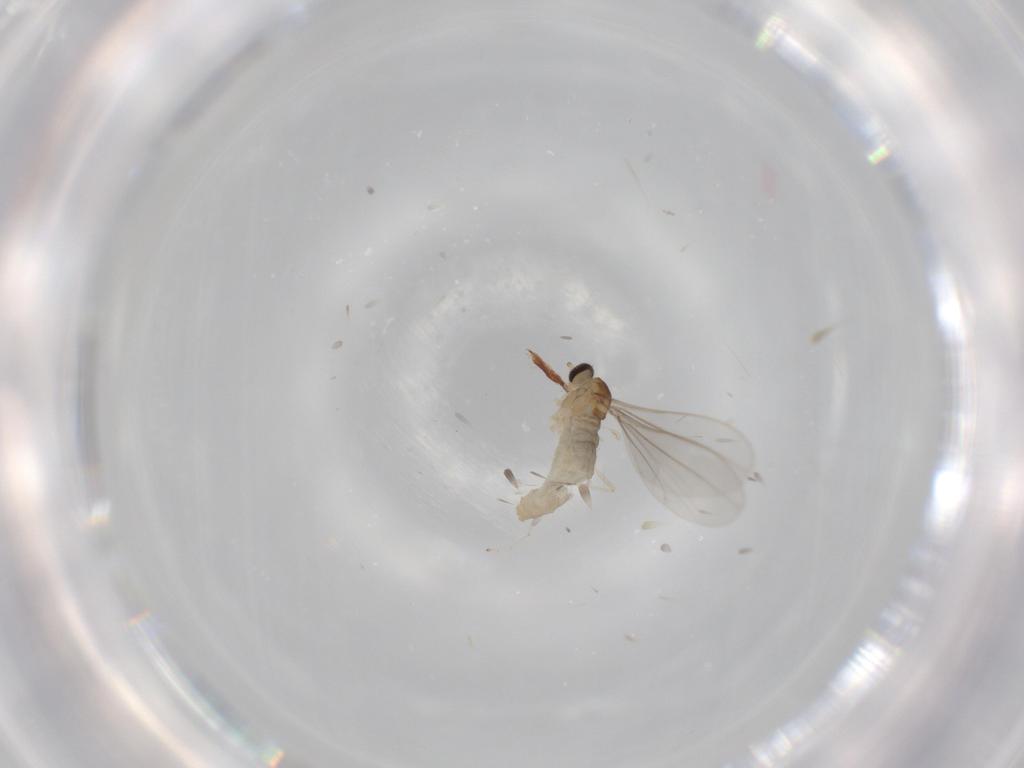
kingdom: Animalia
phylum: Arthropoda
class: Insecta
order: Diptera
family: Cecidomyiidae
